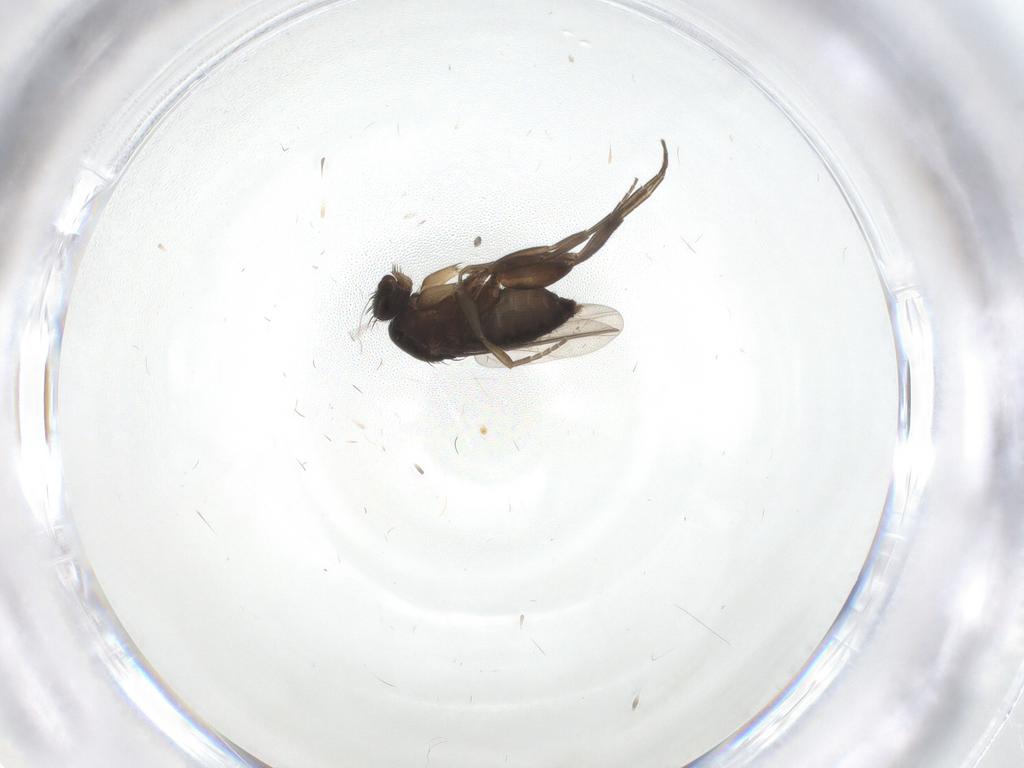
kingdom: Animalia
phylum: Arthropoda
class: Insecta
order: Diptera
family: Phoridae
